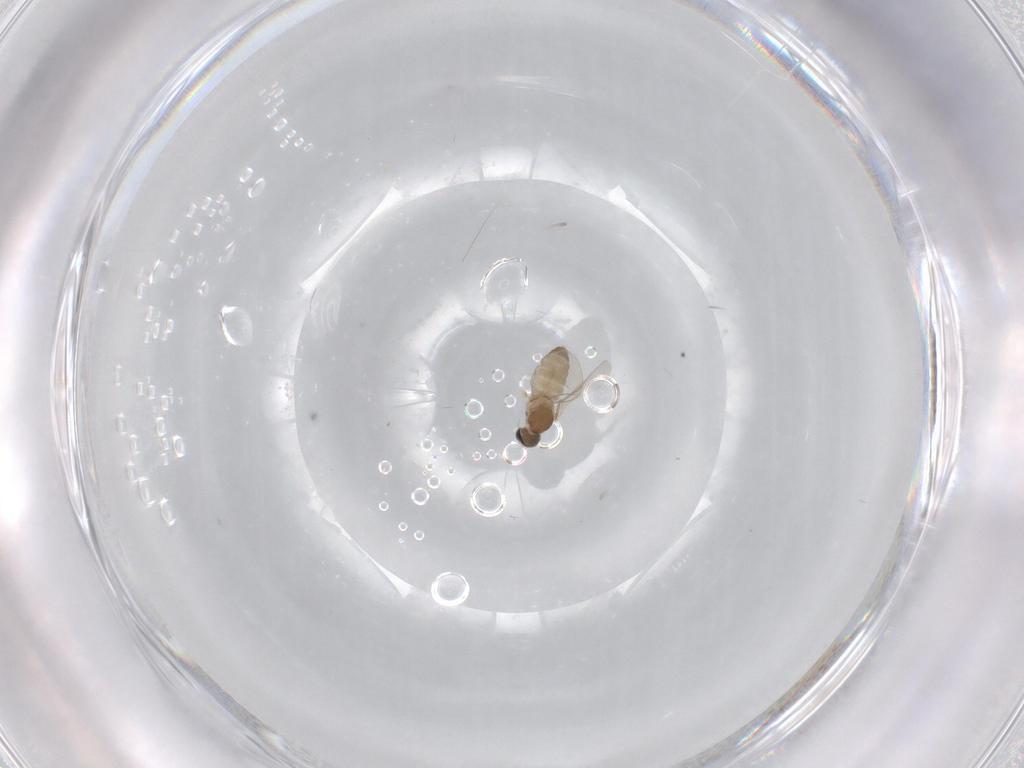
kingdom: Animalia
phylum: Arthropoda
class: Insecta
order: Diptera
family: Cecidomyiidae
